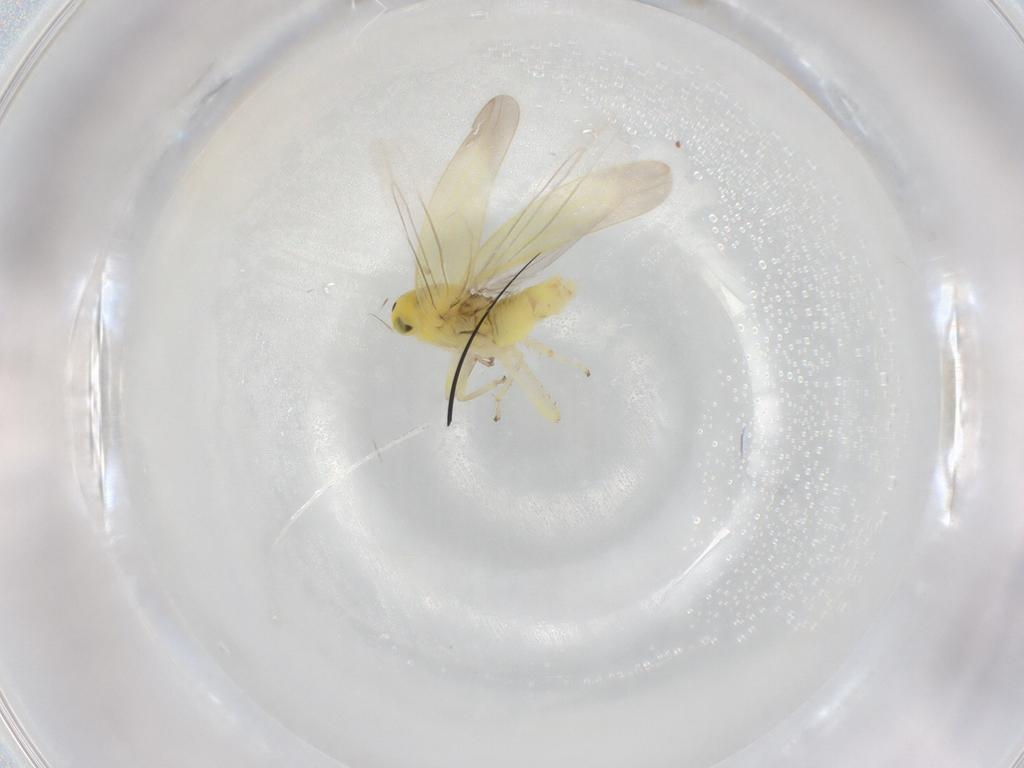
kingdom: Animalia
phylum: Arthropoda
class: Insecta
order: Hemiptera
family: Cicadellidae
